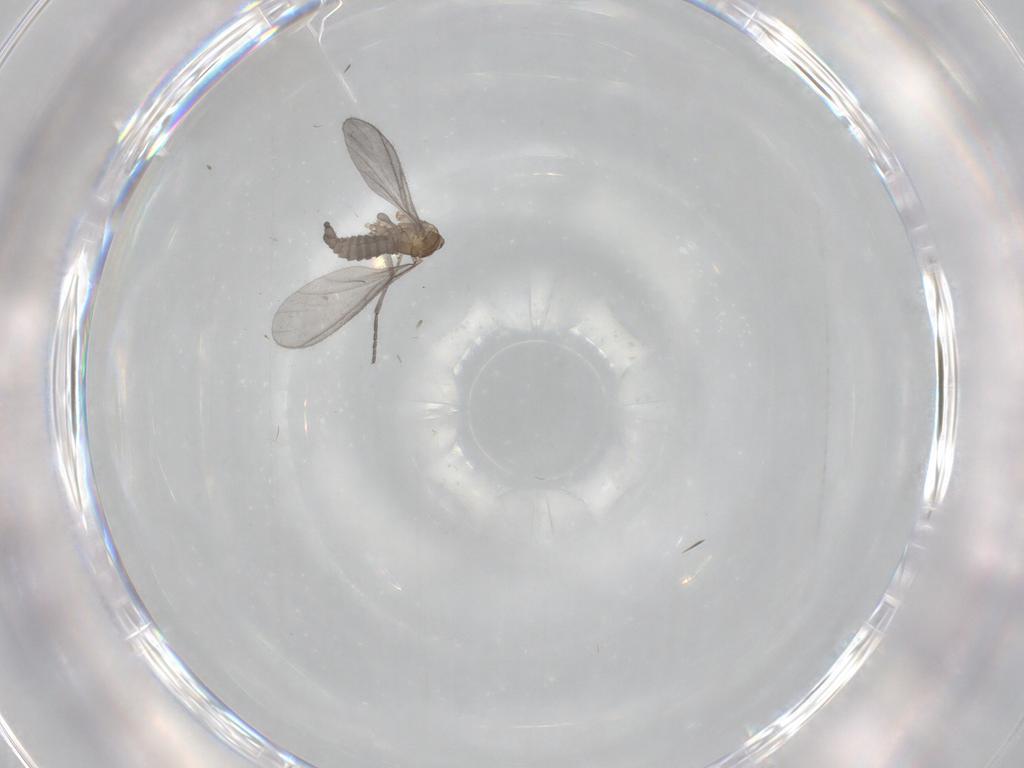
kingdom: Animalia
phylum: Arthropoda
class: Insecta
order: Diptera
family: Sciaridae
